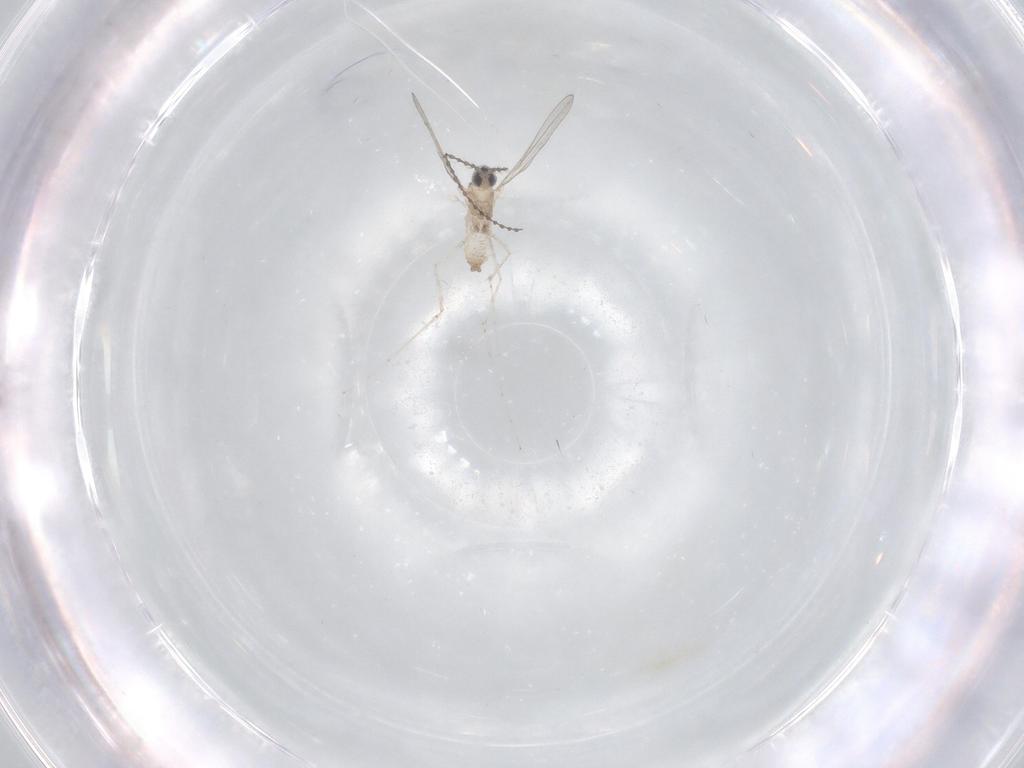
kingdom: Animalia
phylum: Arthropoda
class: Insecta
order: Diptera
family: Cecidomyiidae
